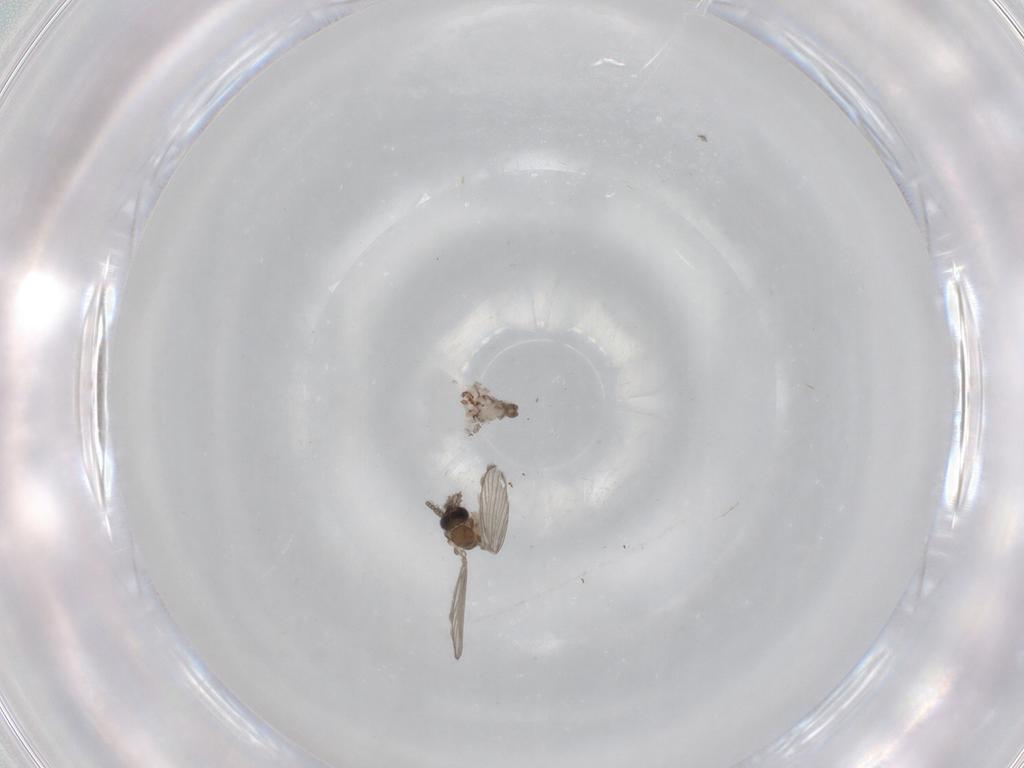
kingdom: Animalia
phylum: Arthropoda
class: Insecta
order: Diptera
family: Psychodidae
